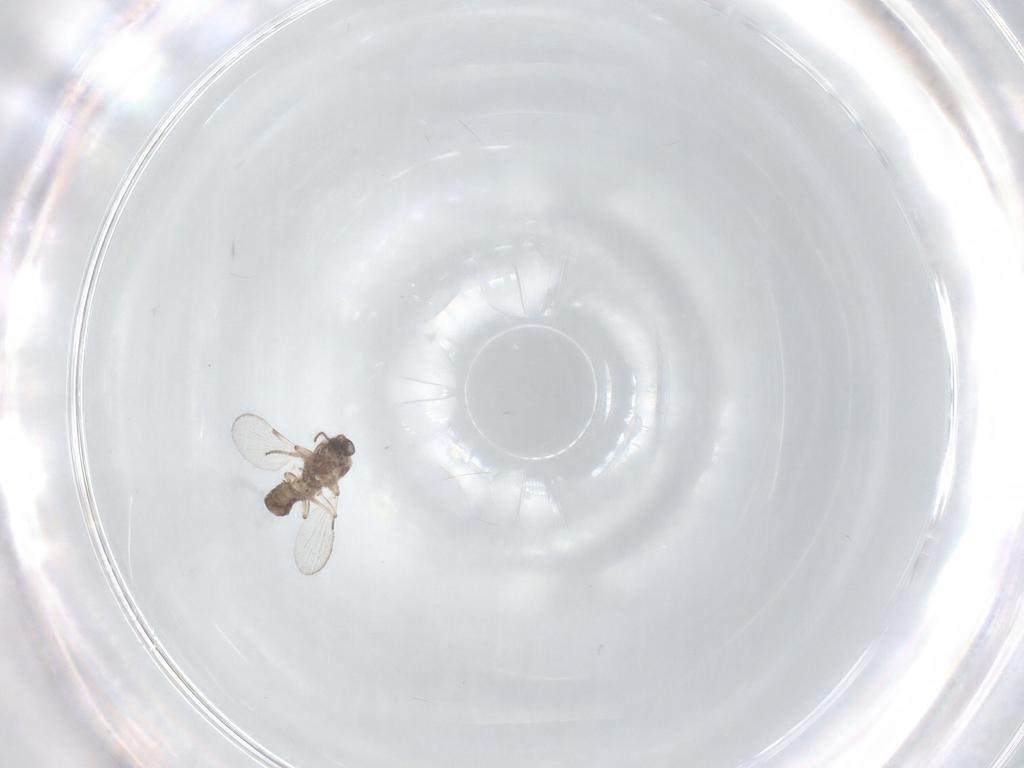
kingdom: Animalia
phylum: Arthropoda
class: Insecta
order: Diptera
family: Ceratopogonidae
